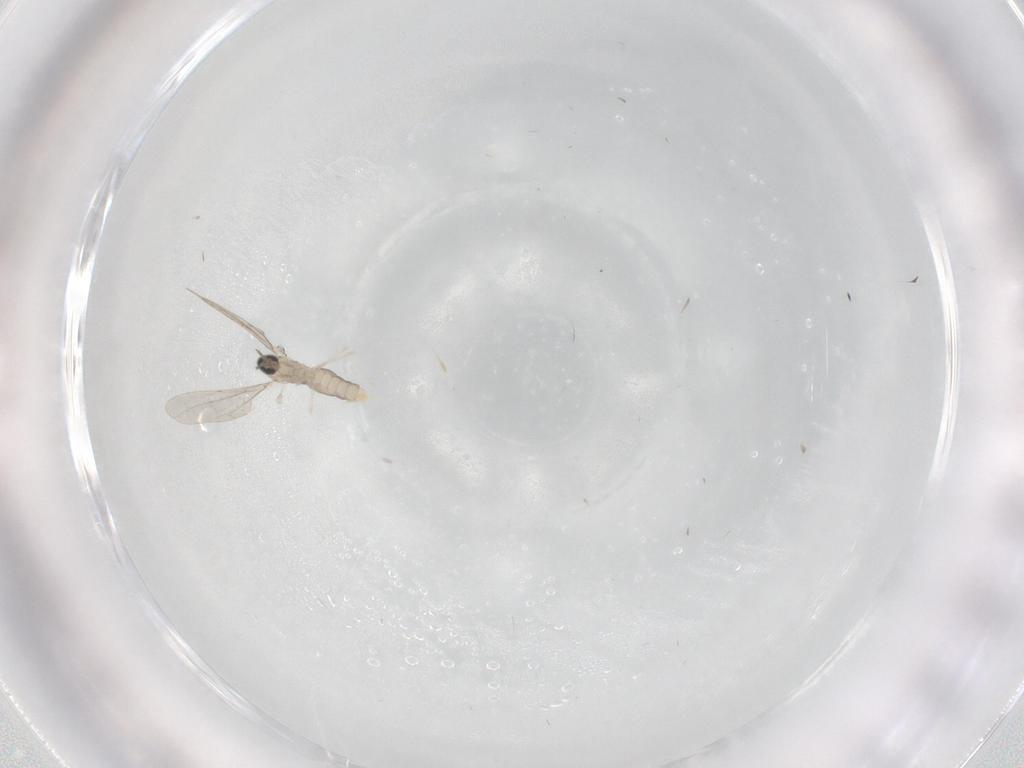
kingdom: Animalia
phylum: Arthropoda
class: Insecta
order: Diptera
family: Cecidomyiidae
